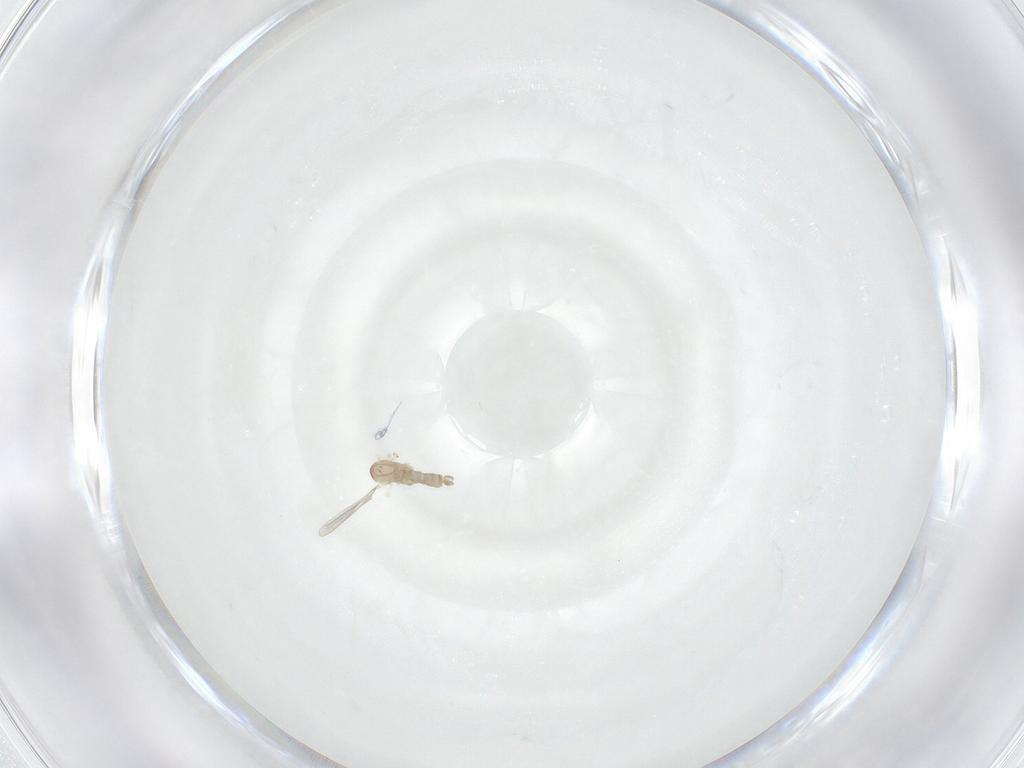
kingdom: Animalia
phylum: Arthropoda
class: Insecta
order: Diptera
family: Cecidomyiidae
